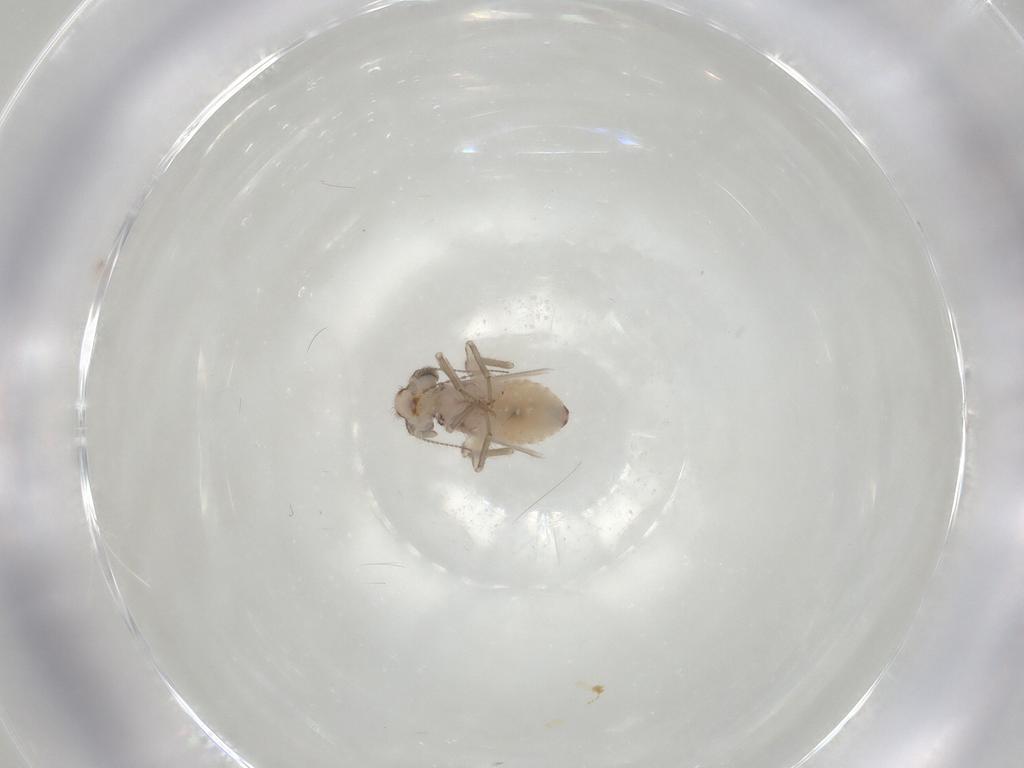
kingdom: Animalia
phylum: Arthropoda
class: Insecta
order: Psocodea
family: Lepidopsocidae
